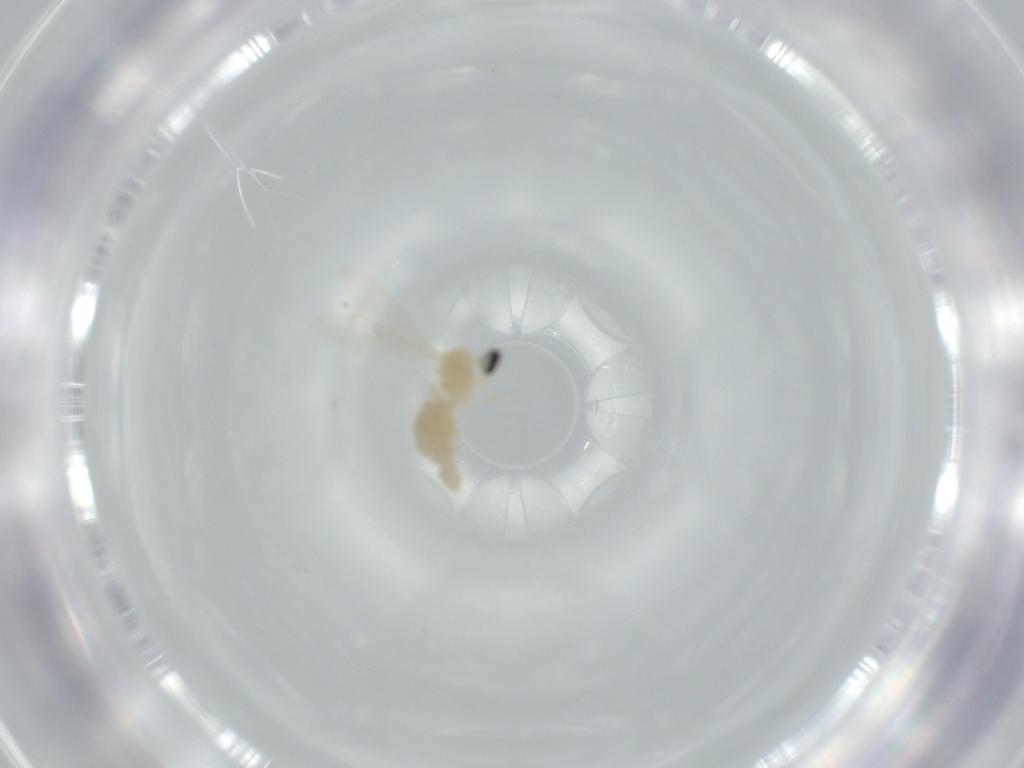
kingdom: Animalia
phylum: Arthropoda
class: Insecta
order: Diptera
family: Cecidomyiidae
